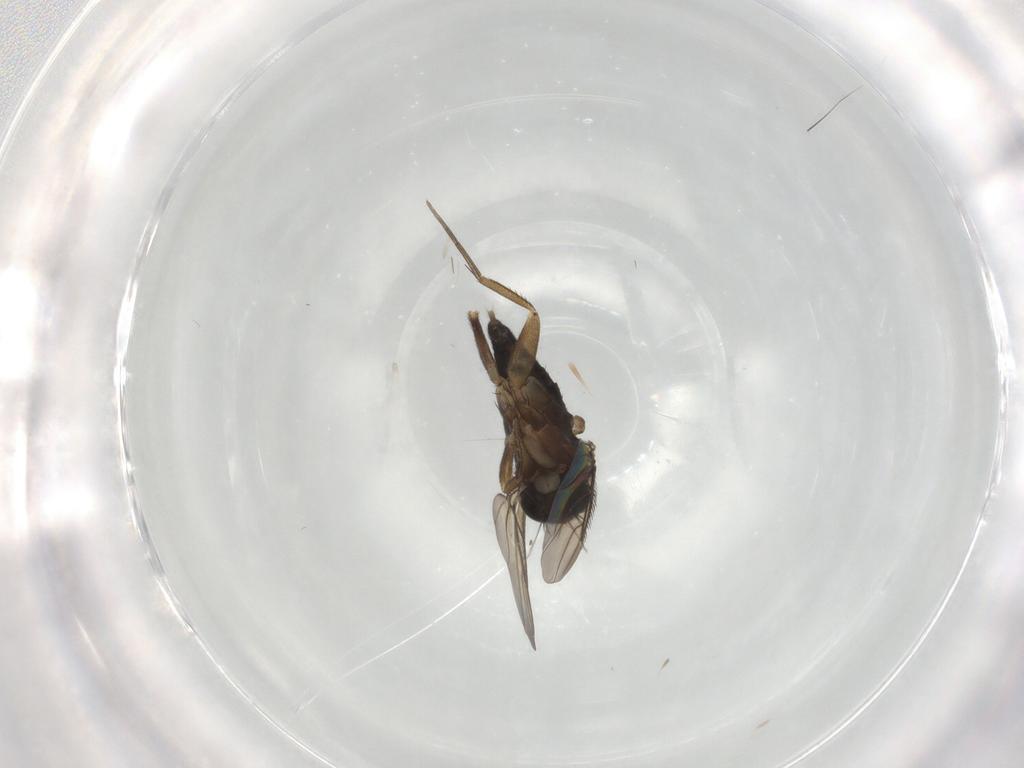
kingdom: Animalia
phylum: Arthropoda
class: Insecta
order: Diptera
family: Phoridae
